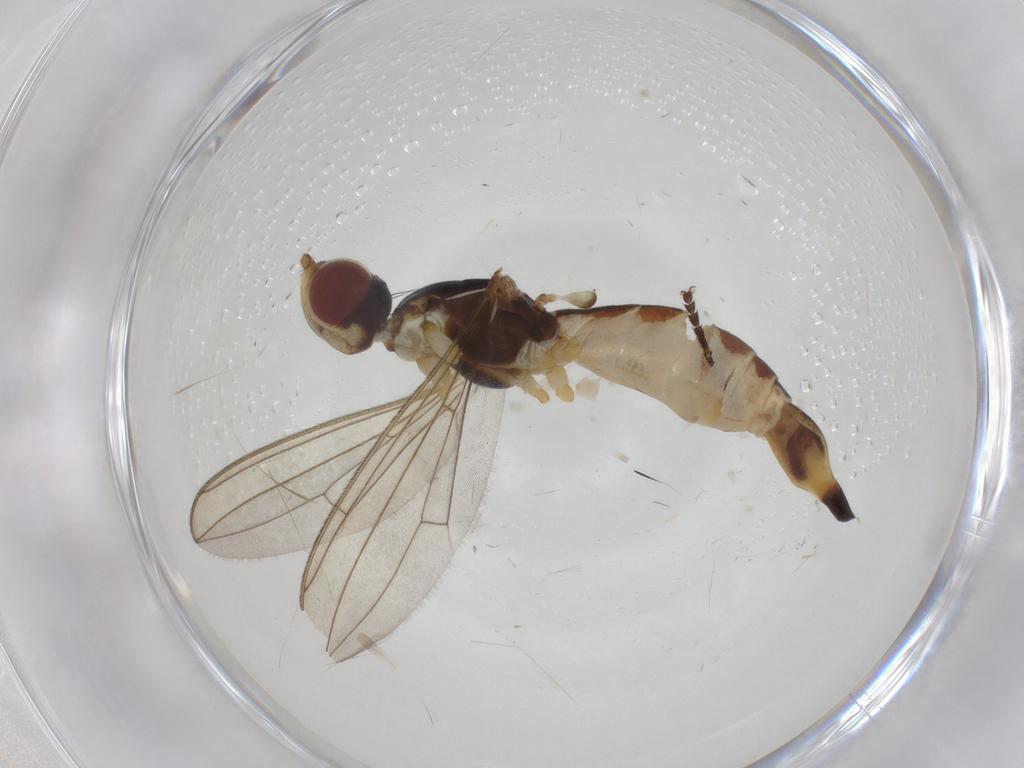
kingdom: Animalia
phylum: Arthropoda
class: Insecta
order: Diptera
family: Micropezidae
